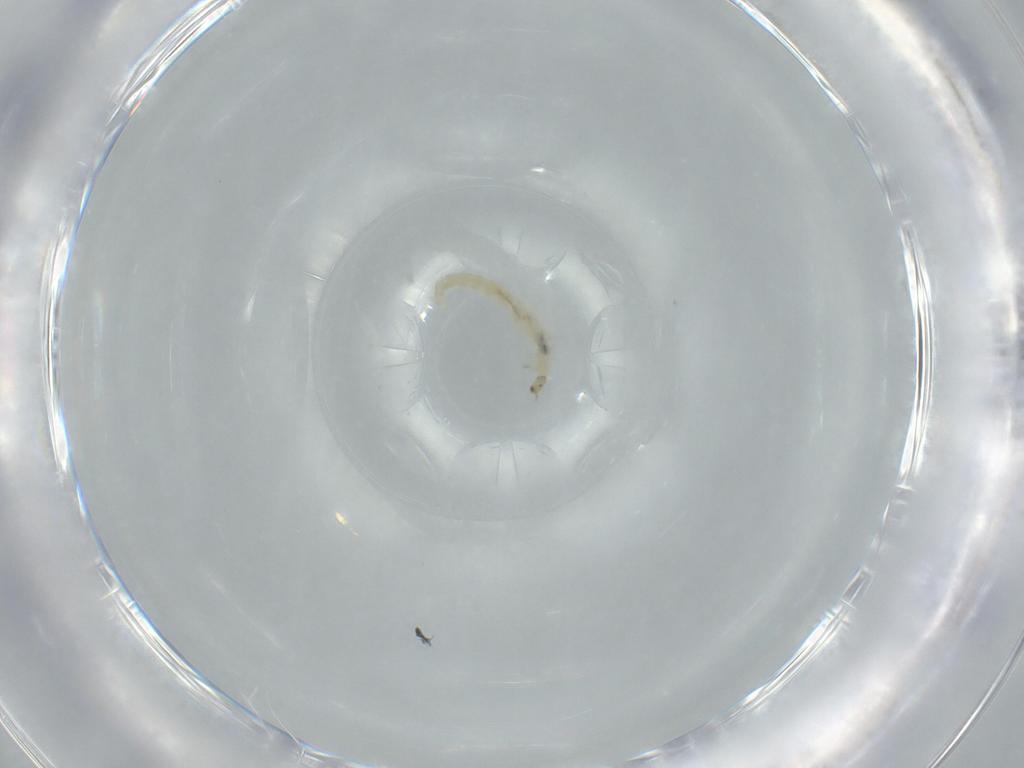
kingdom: Animalia
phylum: Arthropoda
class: Insecta
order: Diptera
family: Chironomidae
